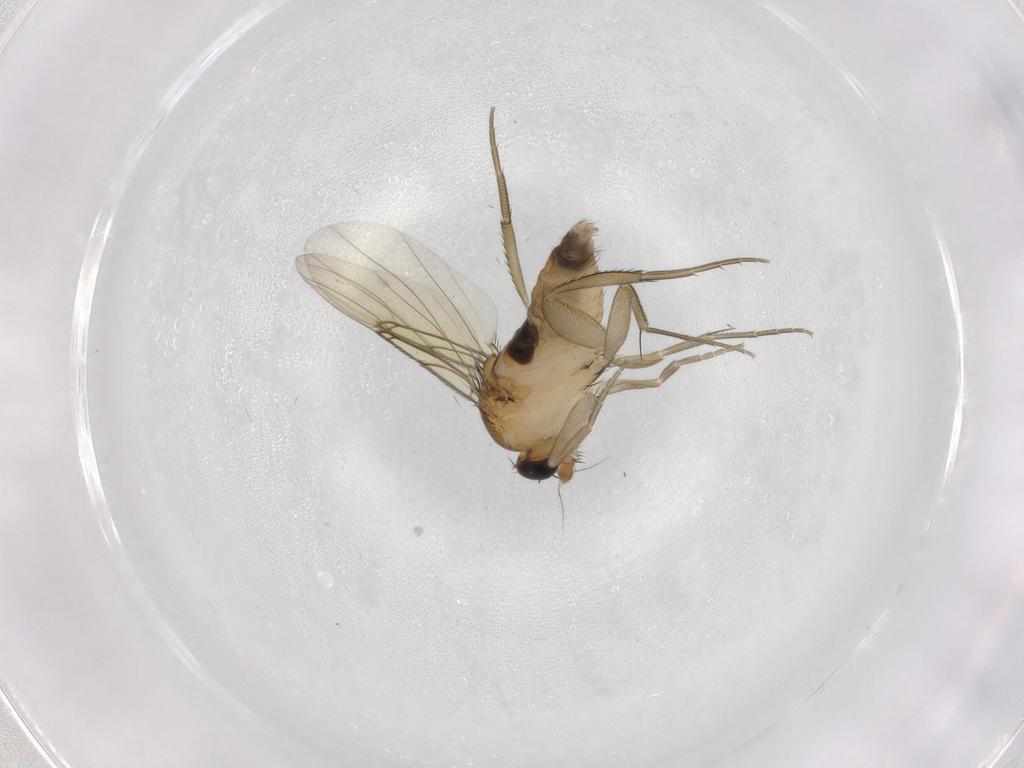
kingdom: Animalia
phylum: Arthropoda
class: Insecta
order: Diptera
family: Phoridae
